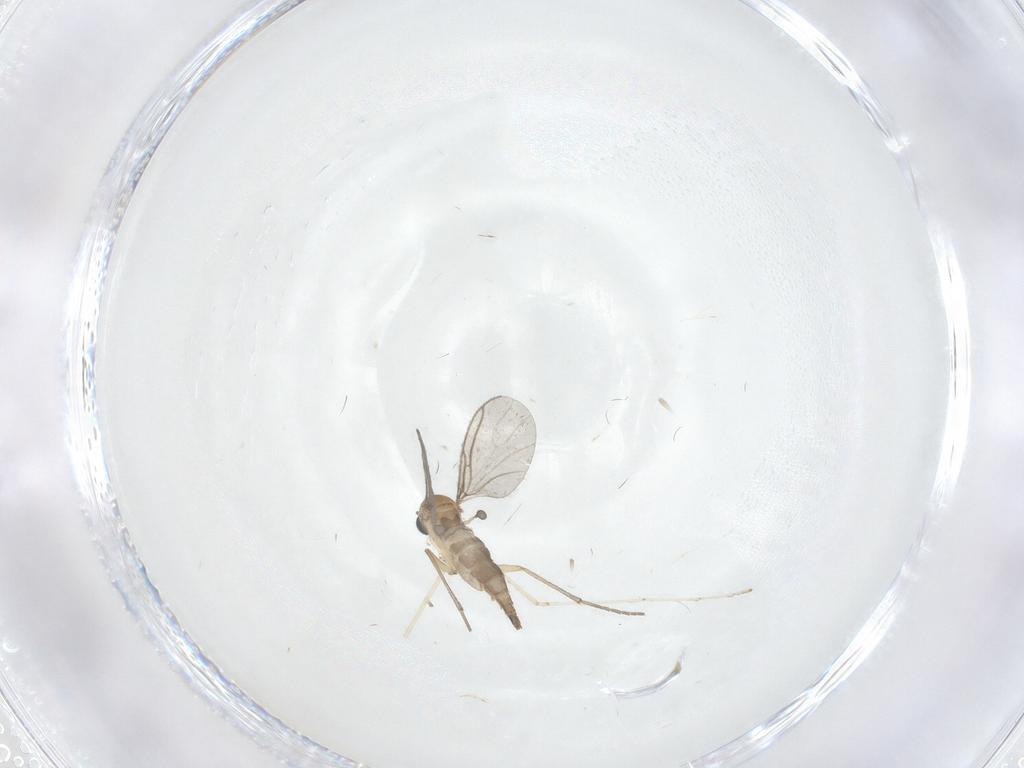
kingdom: Animalia
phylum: Arthropoda
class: Insecta
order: Diptera
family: Sciaridae
